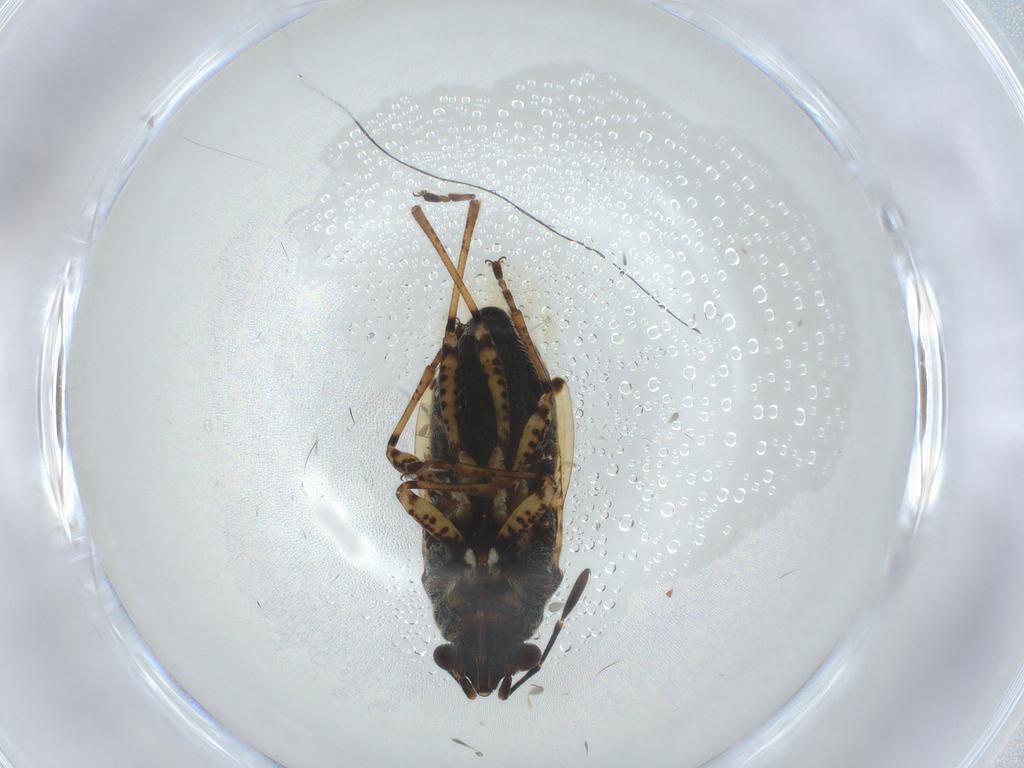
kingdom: Animalia
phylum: Arthropoda
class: Insecta
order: Hemiptera
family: Lygaeidae
